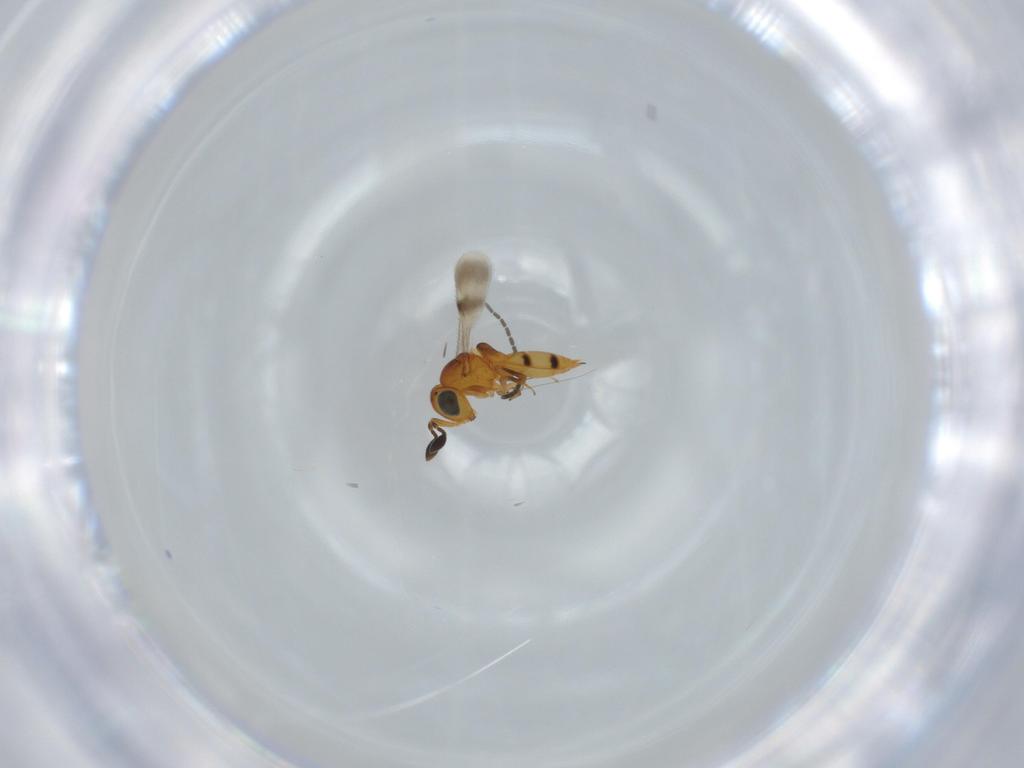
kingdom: Animalia
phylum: Arthropoda
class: Insecta
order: Hymenoptera
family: Scelionidae
